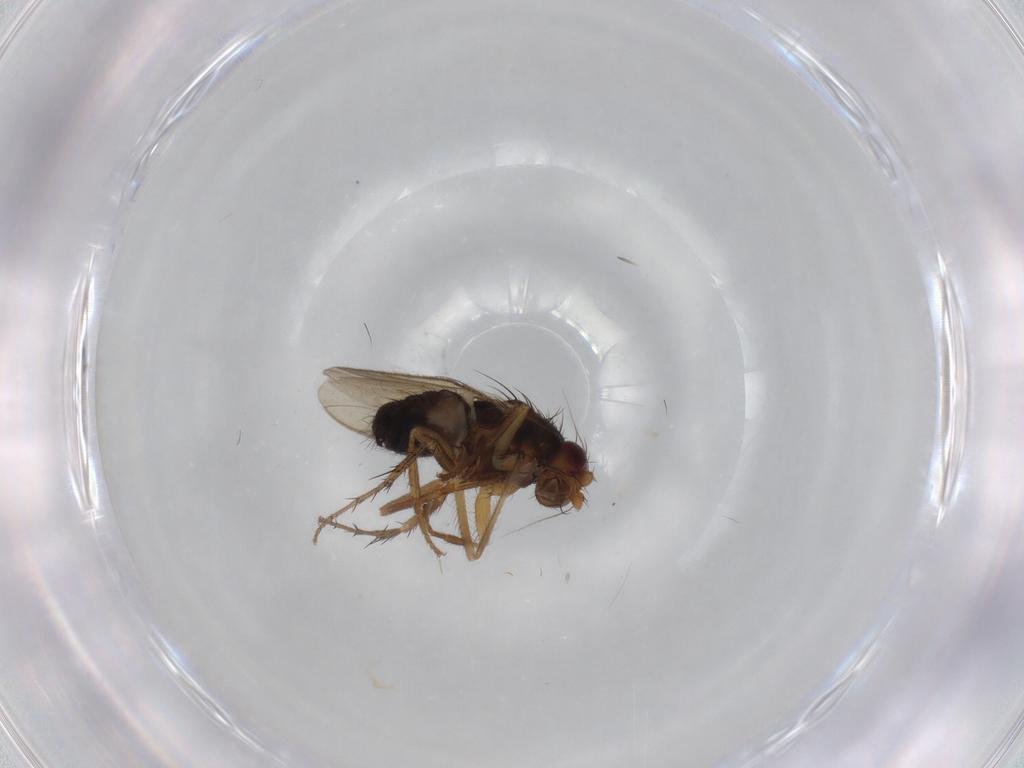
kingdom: Animalia
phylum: Arthropoda
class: Insecta
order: Diptera
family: Sphaeroceridae
